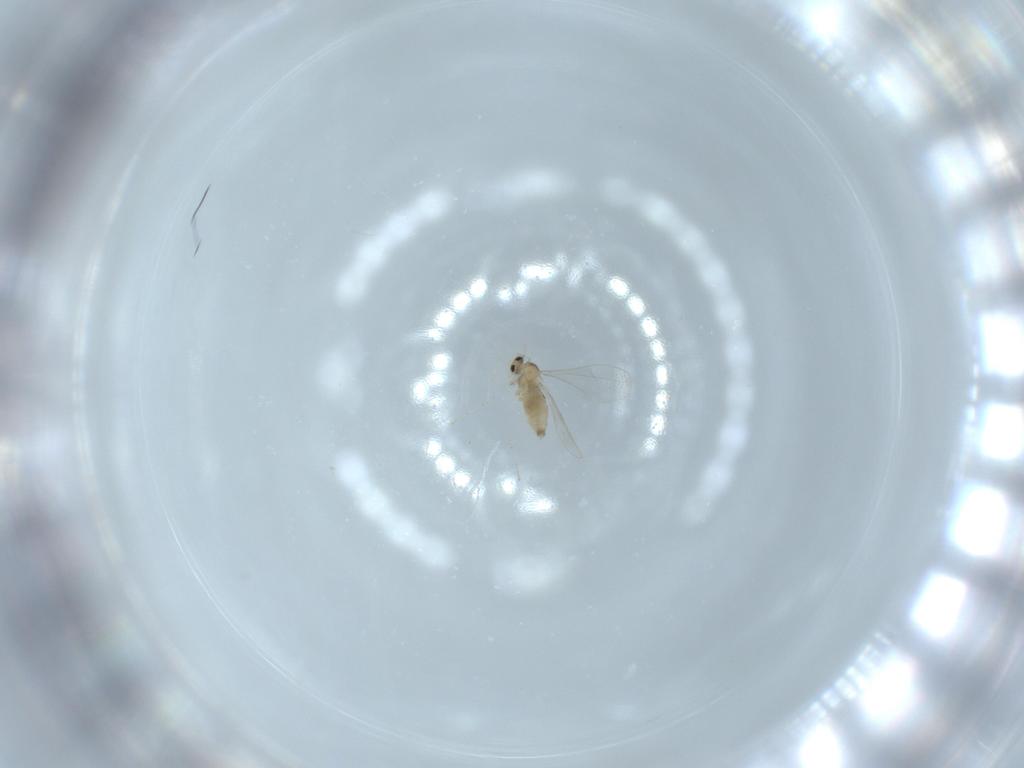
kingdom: Animalia
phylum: Arthropoda
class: Insecta
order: Diptera
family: Cecidomyiidae
